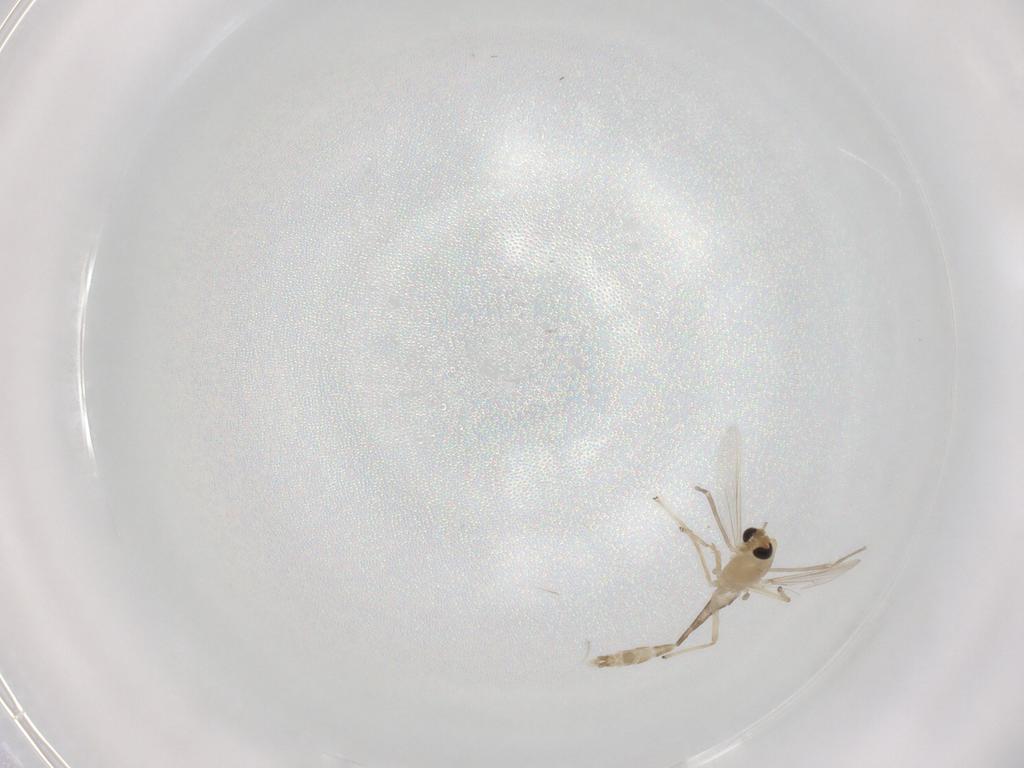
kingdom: Animalia
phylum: Arthropoda
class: Insecta
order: Diptera
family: Chironomidae
